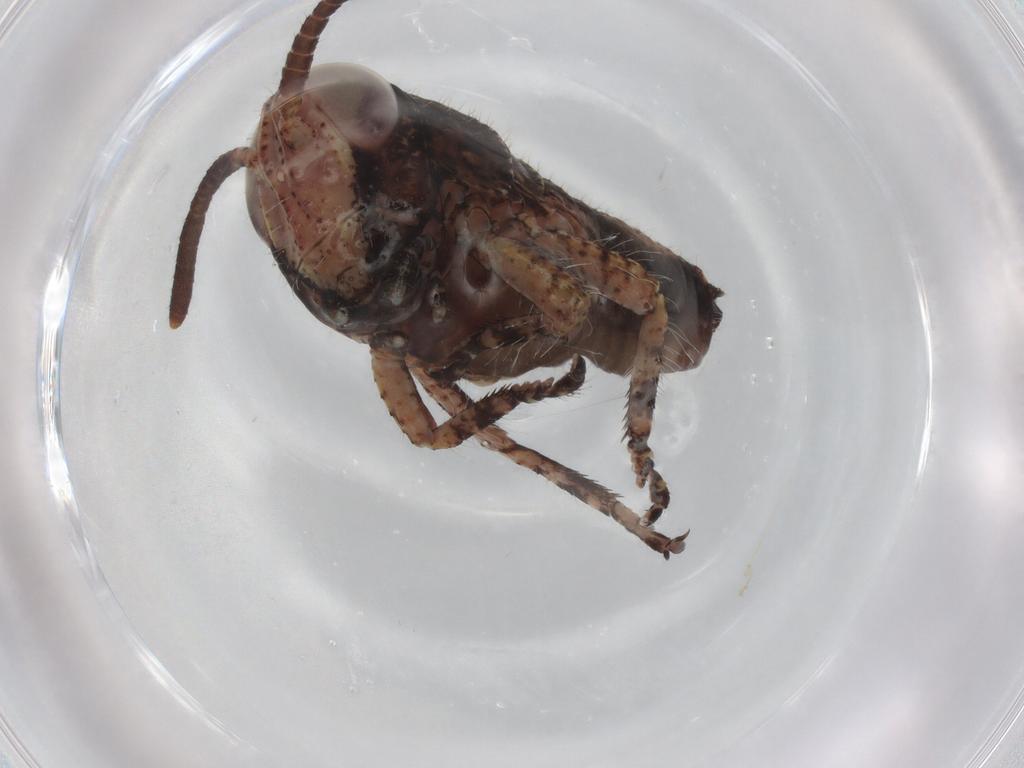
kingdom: Animalia
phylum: Arthropoda
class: Insecta
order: Orthoptera
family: Acrididae
